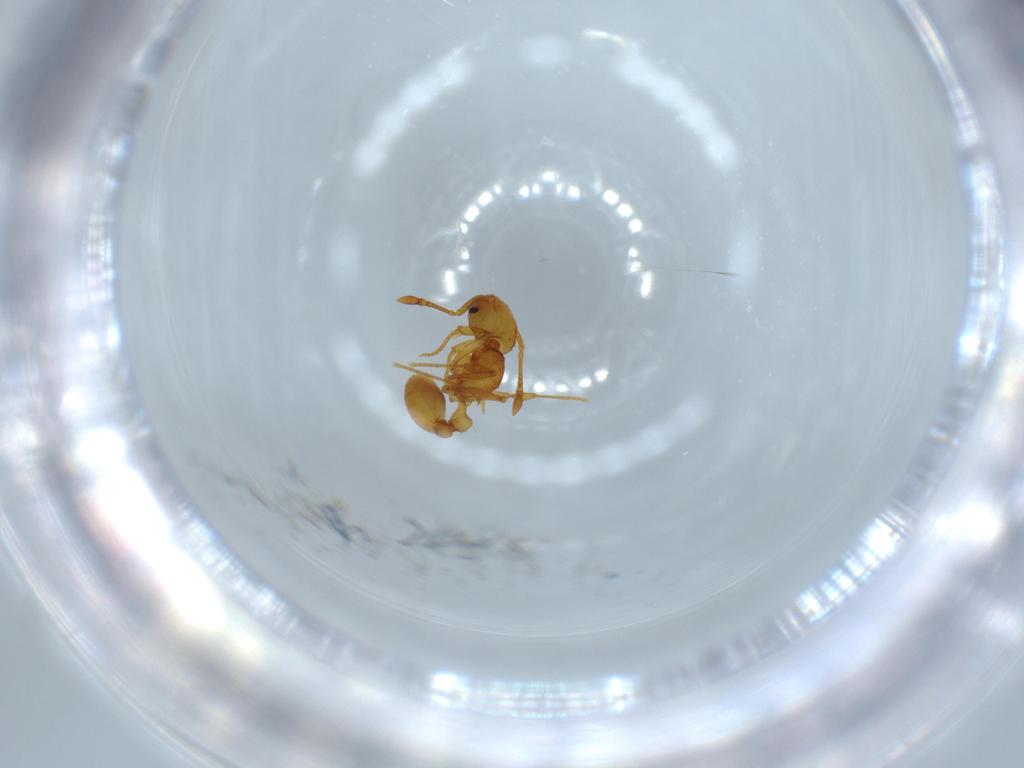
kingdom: Animalia
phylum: Arthropoda
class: Insecta
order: Hymenoptera
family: Formicidae
